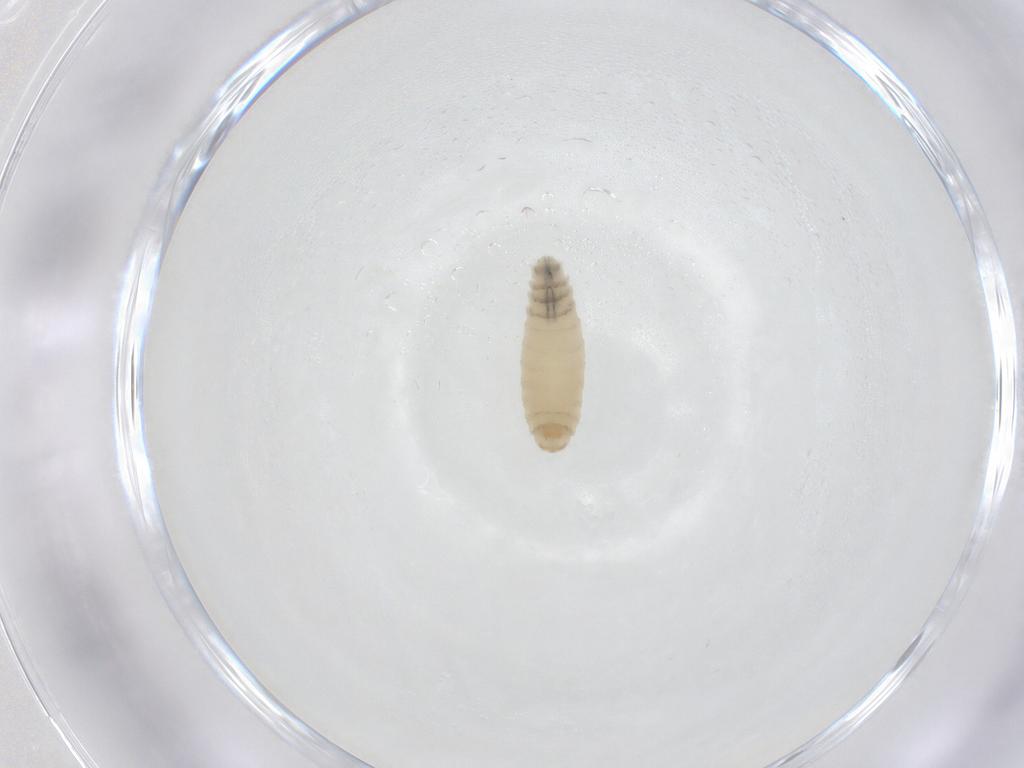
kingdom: Animalia
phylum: Arthropoda
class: Insecta
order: Diptera
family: Sarcophagidae
